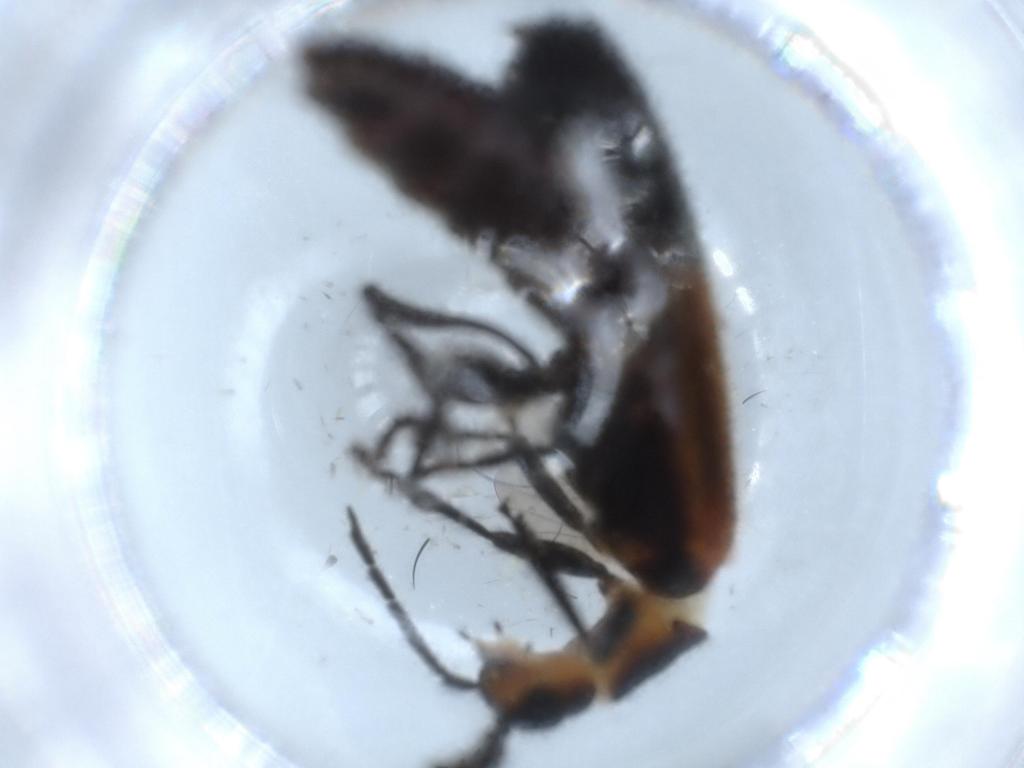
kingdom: Animalia
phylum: Arthropoda
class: Insecta
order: Coleoptera
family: Cleridae
